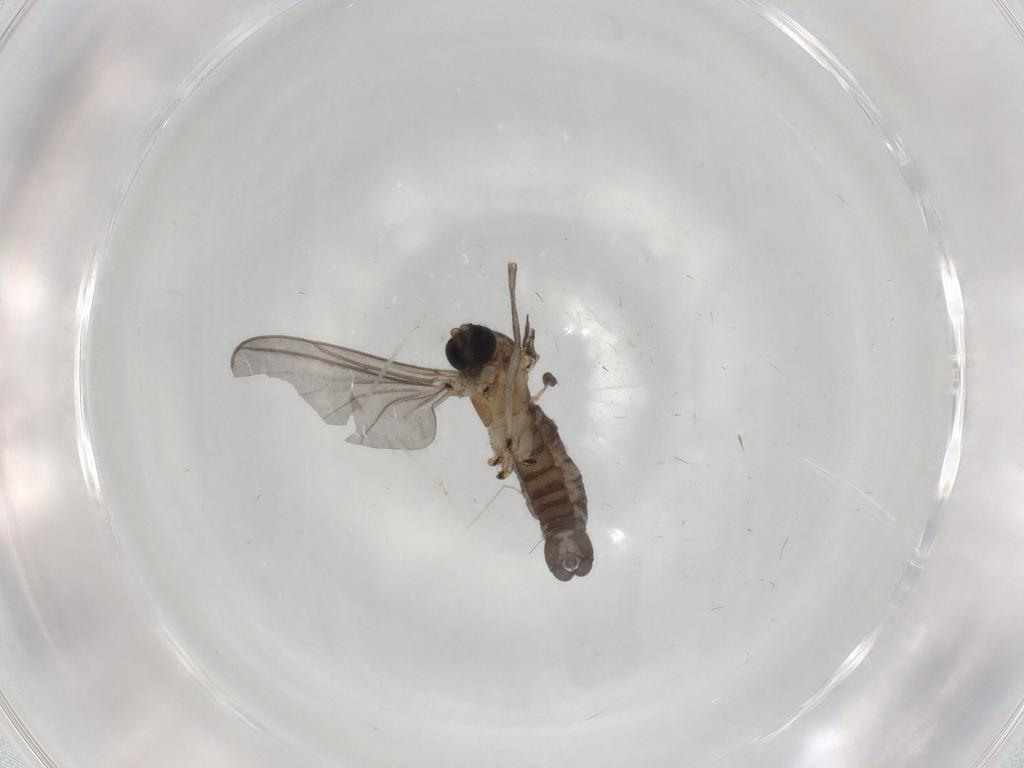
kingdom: Animalia
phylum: Arthropoda
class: Insecta
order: Diptera
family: Cecidomyiidae
